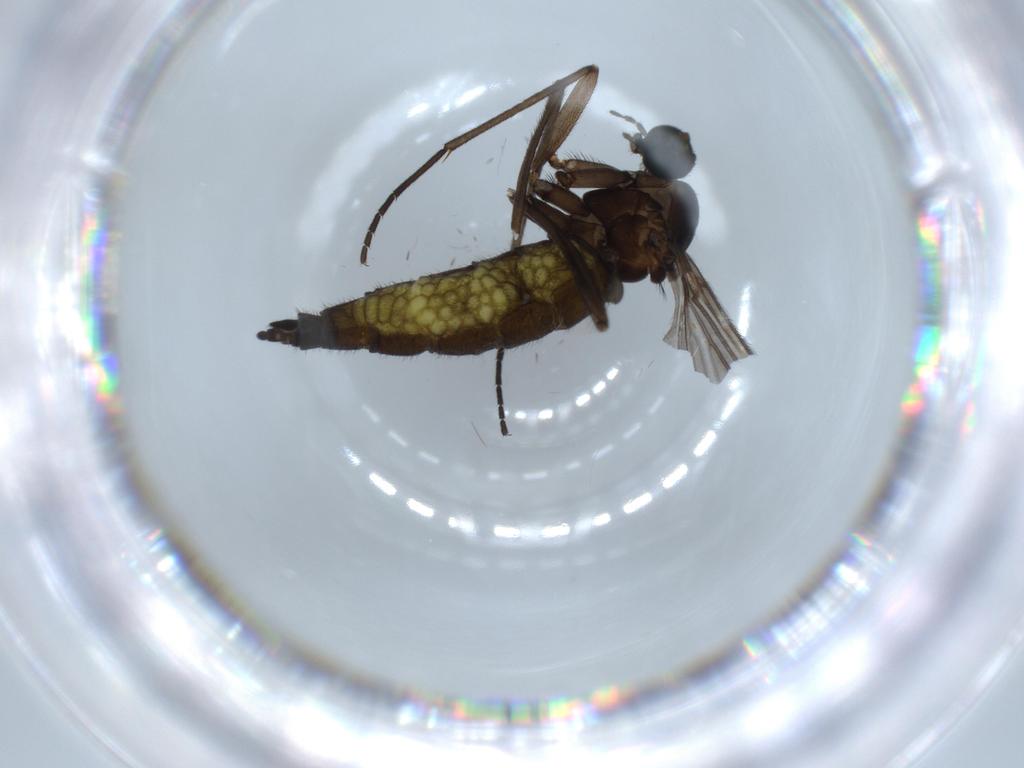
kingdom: Animalia
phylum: Arthropoda
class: Insecta
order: Diptera
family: Sciaridae
